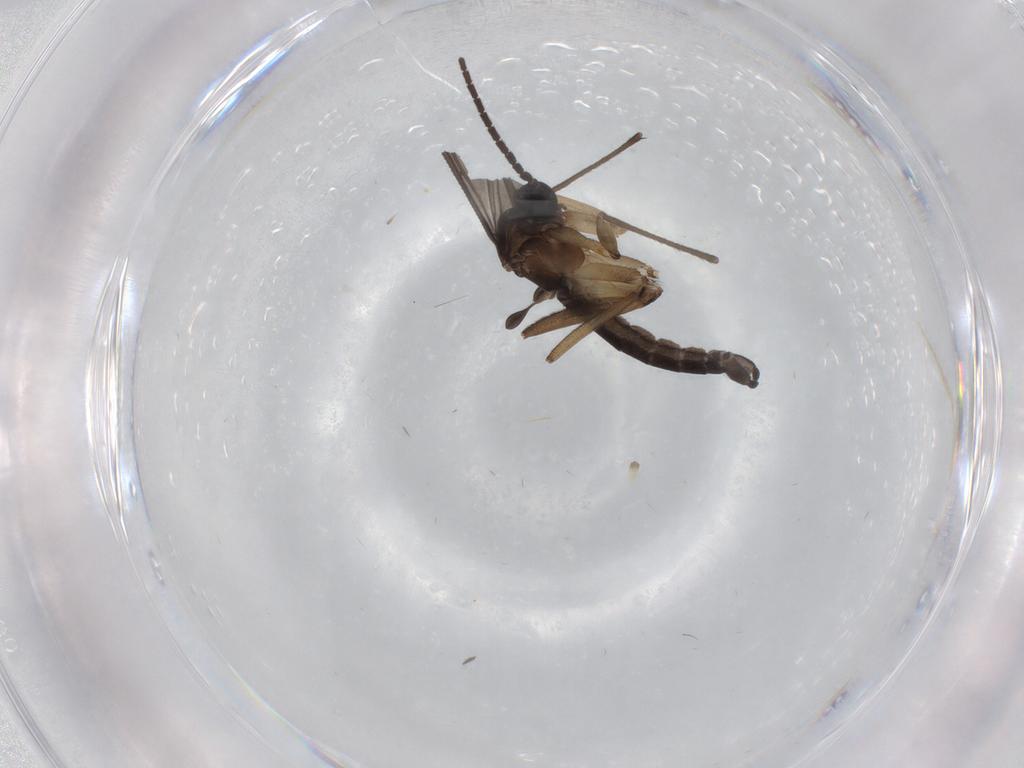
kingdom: Animalia
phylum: Arthropoda
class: Insecta
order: Diptera
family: Sciaridae
